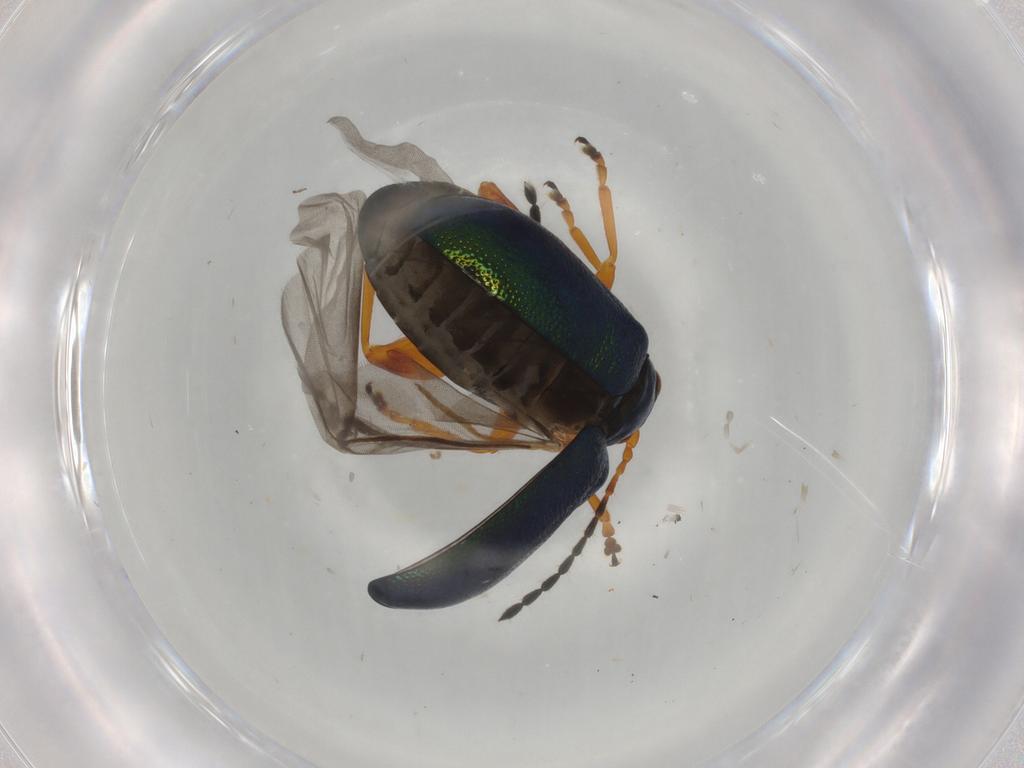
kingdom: Animalia
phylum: Arthropoda
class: Insecta
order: Coleoptera
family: Chrysomelidae
